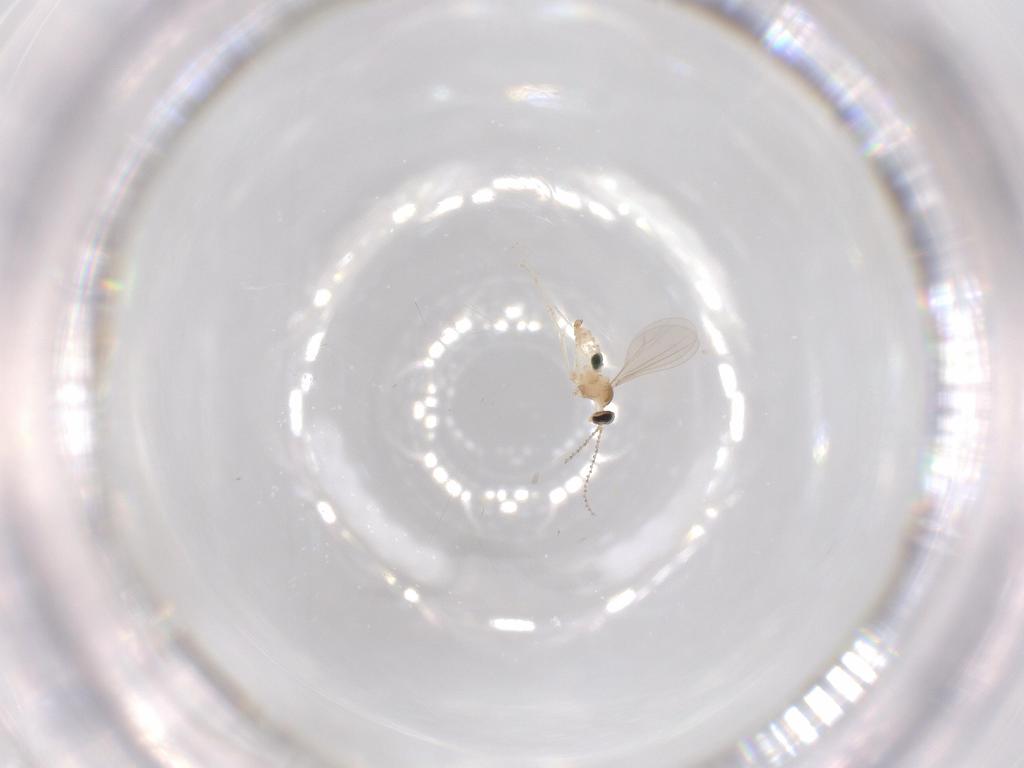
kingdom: Animalia
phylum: Arthropoda
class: Insecta
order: Diptera
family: Cecidomyiidae
